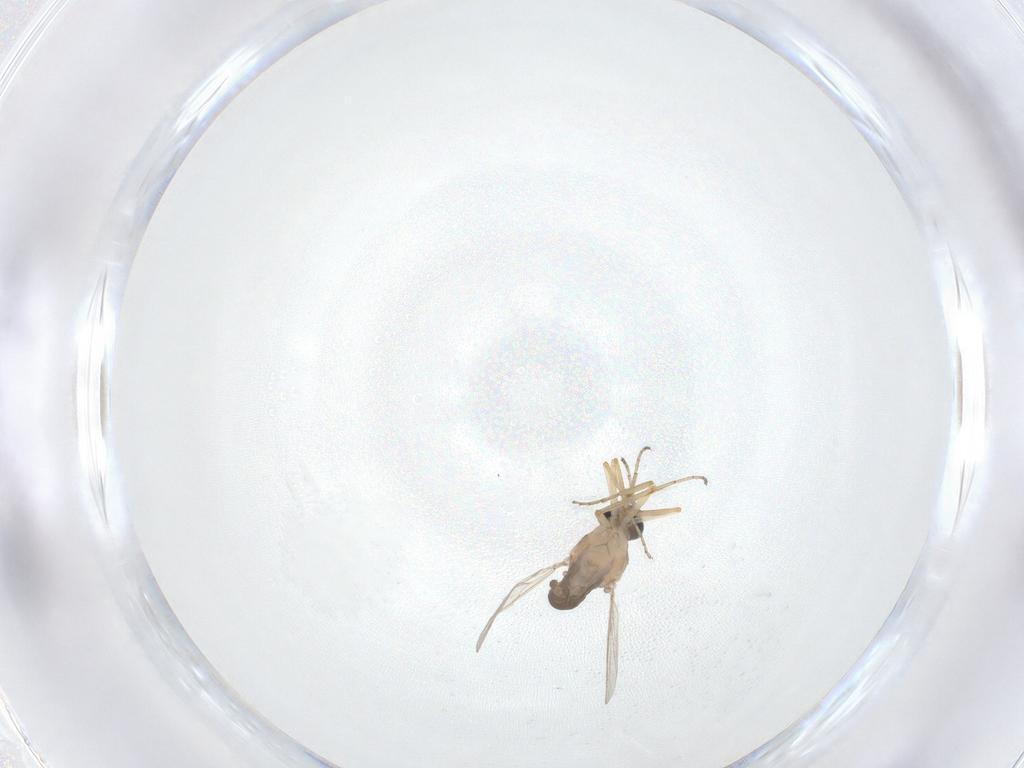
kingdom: Animalia
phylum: Arthropoda
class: Insecta
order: Diptera
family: Ceratopogonidae
